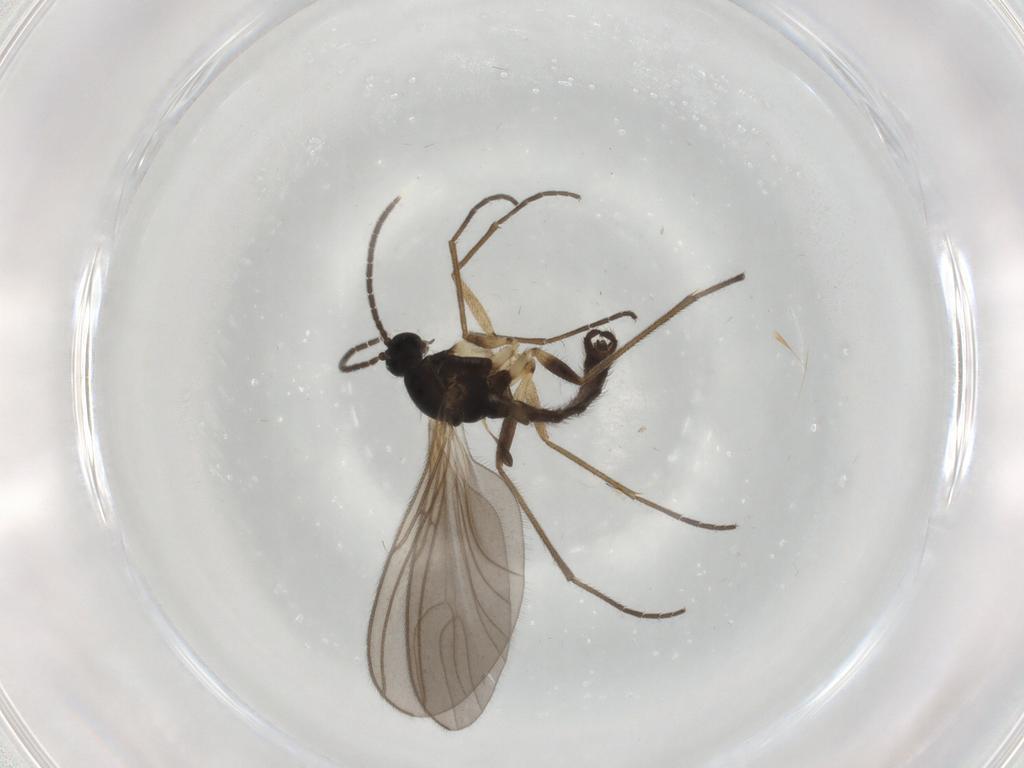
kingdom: Animalia
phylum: Arthropoda
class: Insecta
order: Diptera
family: Sciaridae
